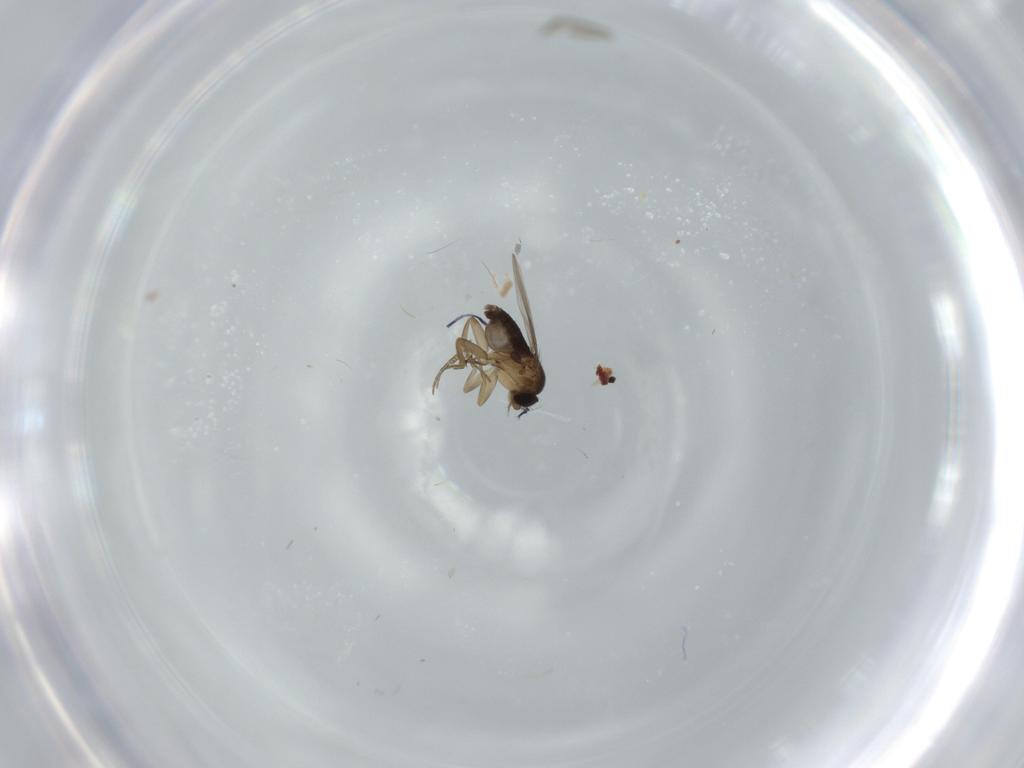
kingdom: Animalia
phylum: Arthropoda
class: Insecta
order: Diptera
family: Phoridae
